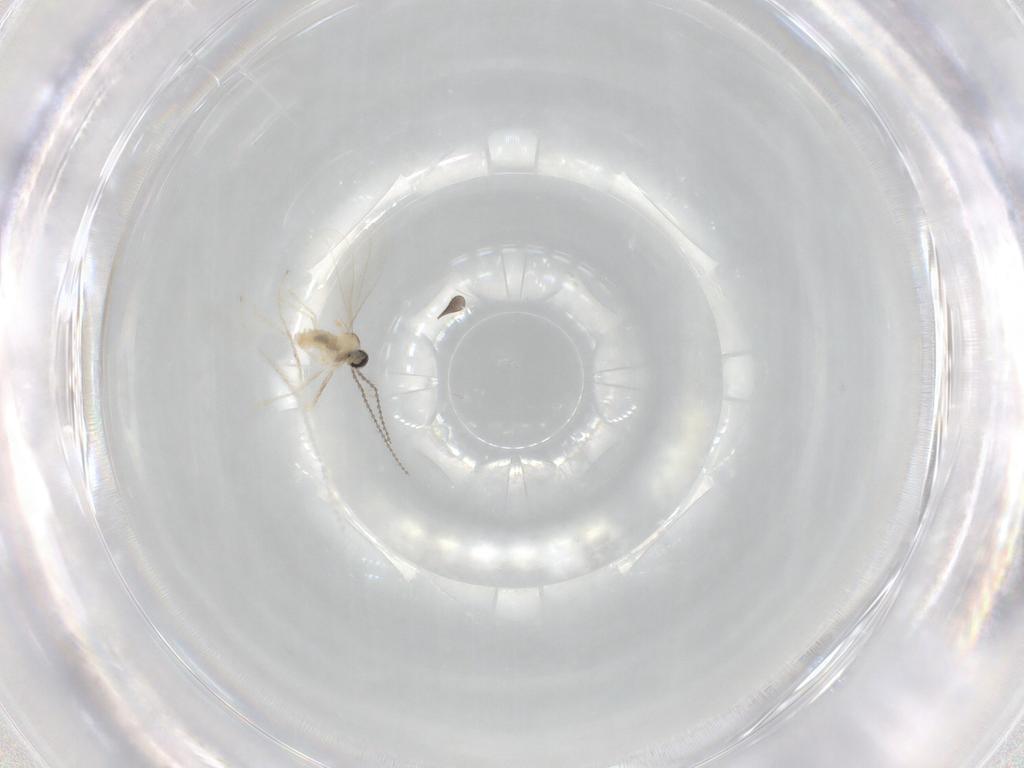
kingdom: Animalia
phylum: Arthropoda
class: Insecta
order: Diptera
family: Sciaridae
